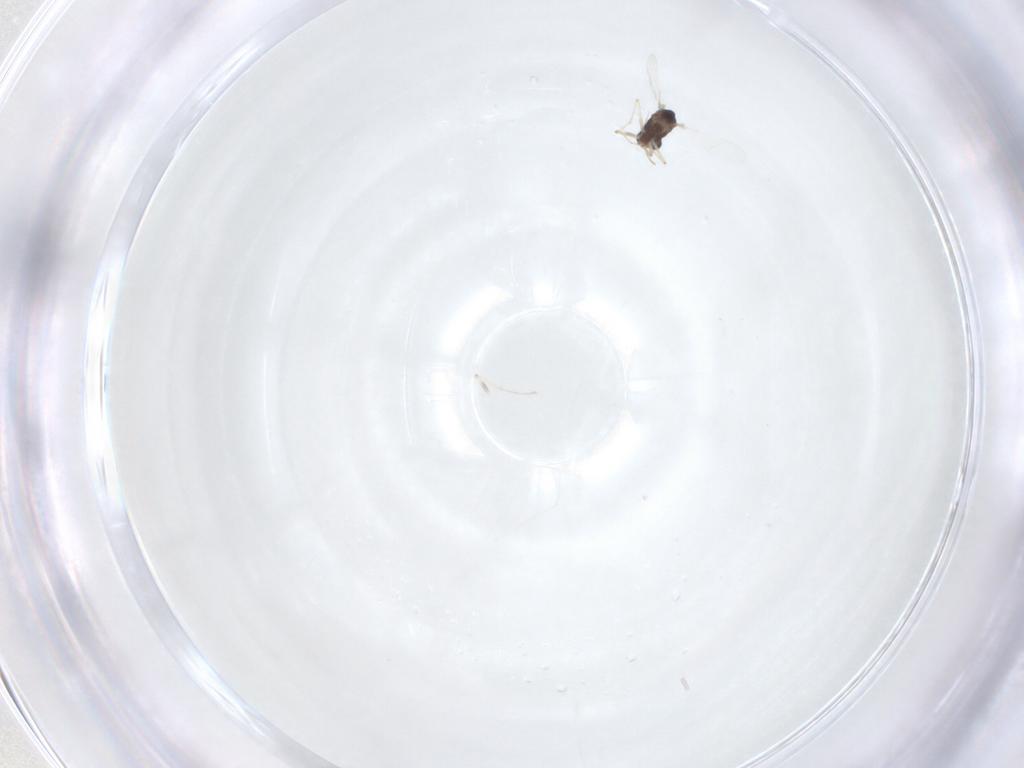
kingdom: Animalia
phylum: Arthropoda
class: Insecta
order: Diptera
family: Chironomidae
